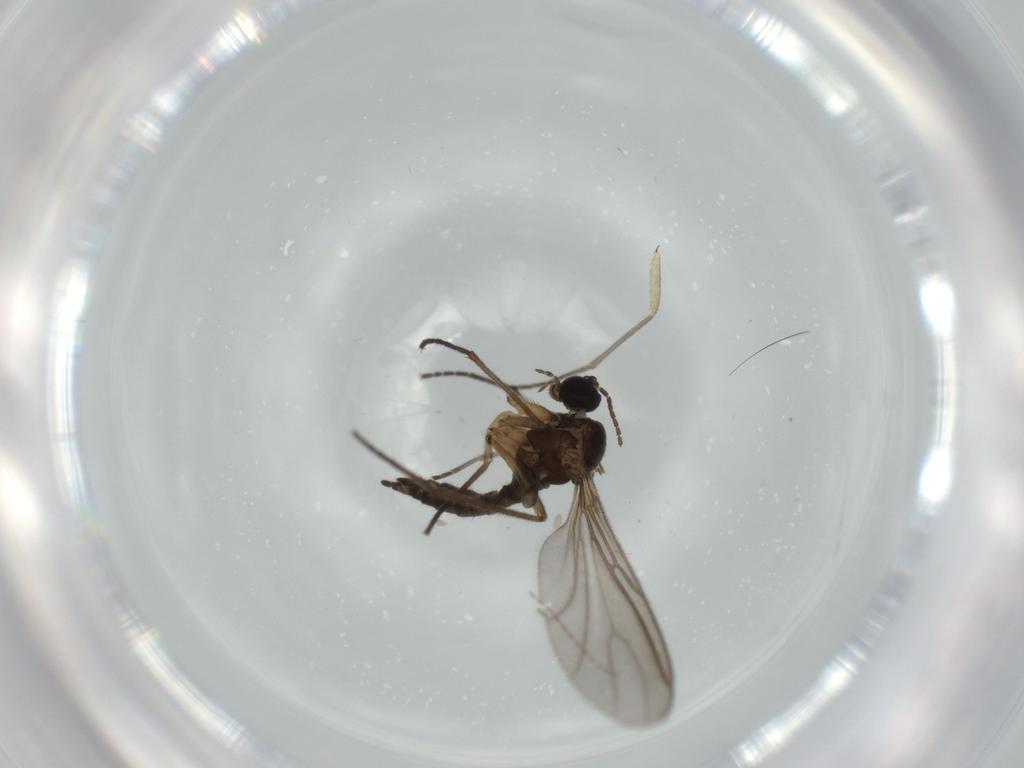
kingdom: Animalia
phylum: Arthropoda
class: Insecta
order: Diptera
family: Sciaridae
